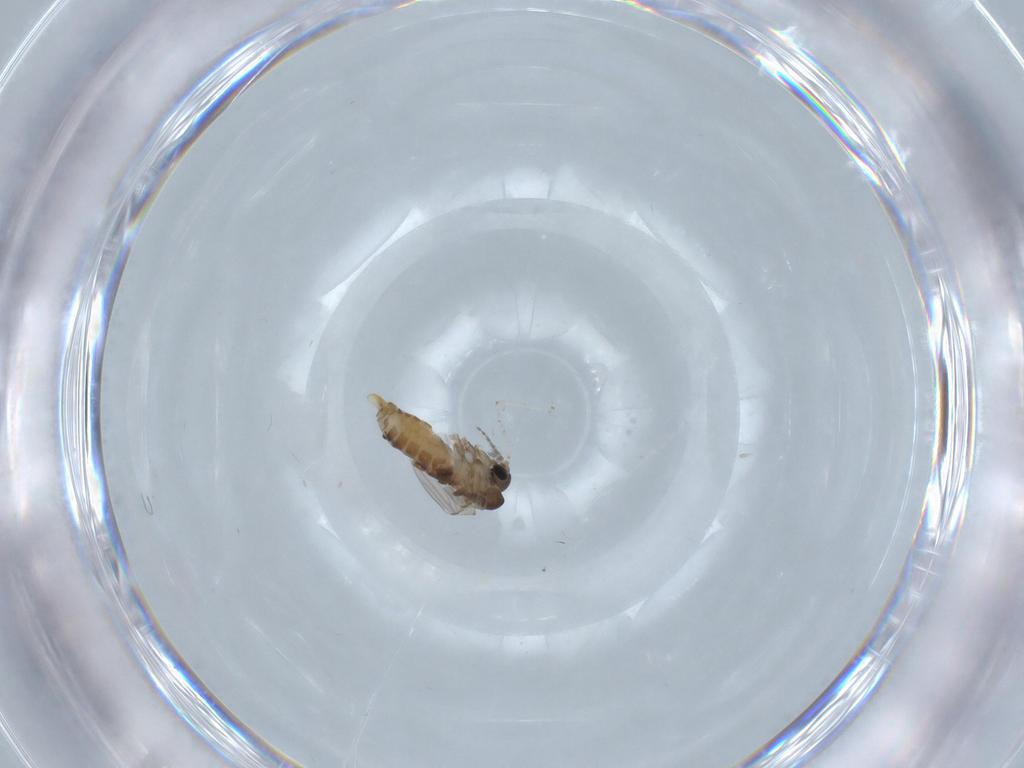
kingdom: Animalia
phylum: Arthropoda
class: Insecta
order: Diptera
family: Cecidomyiidae
